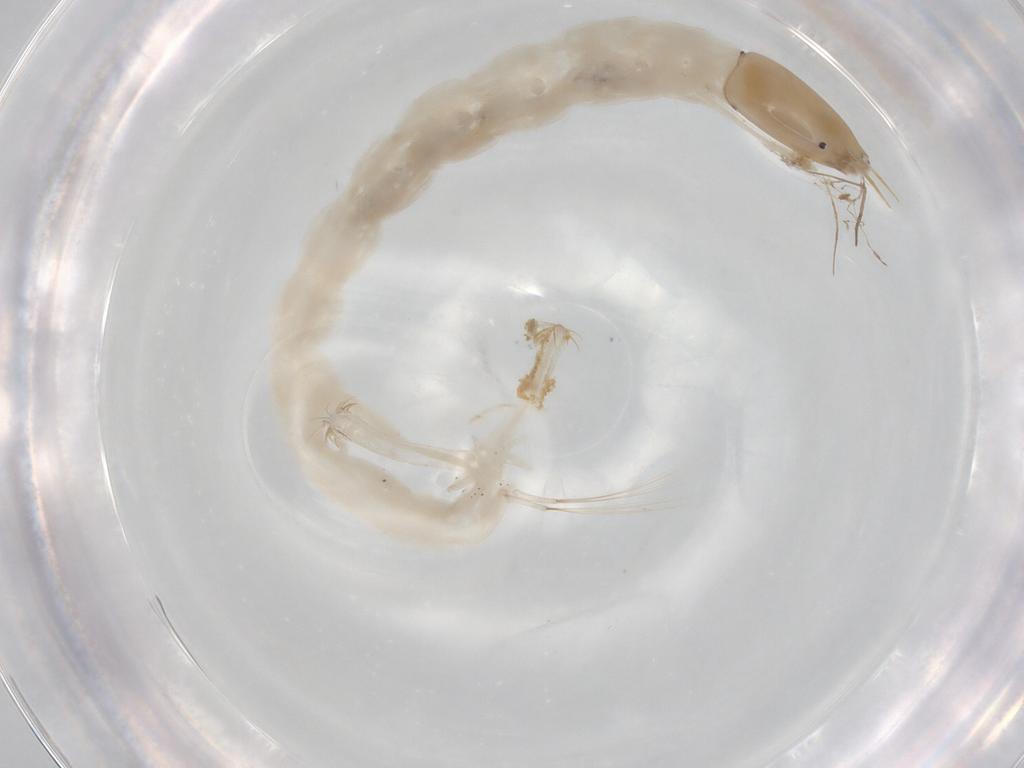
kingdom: Animalia
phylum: Arthropoda
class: Insecta
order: Diptera
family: Chironomidae
